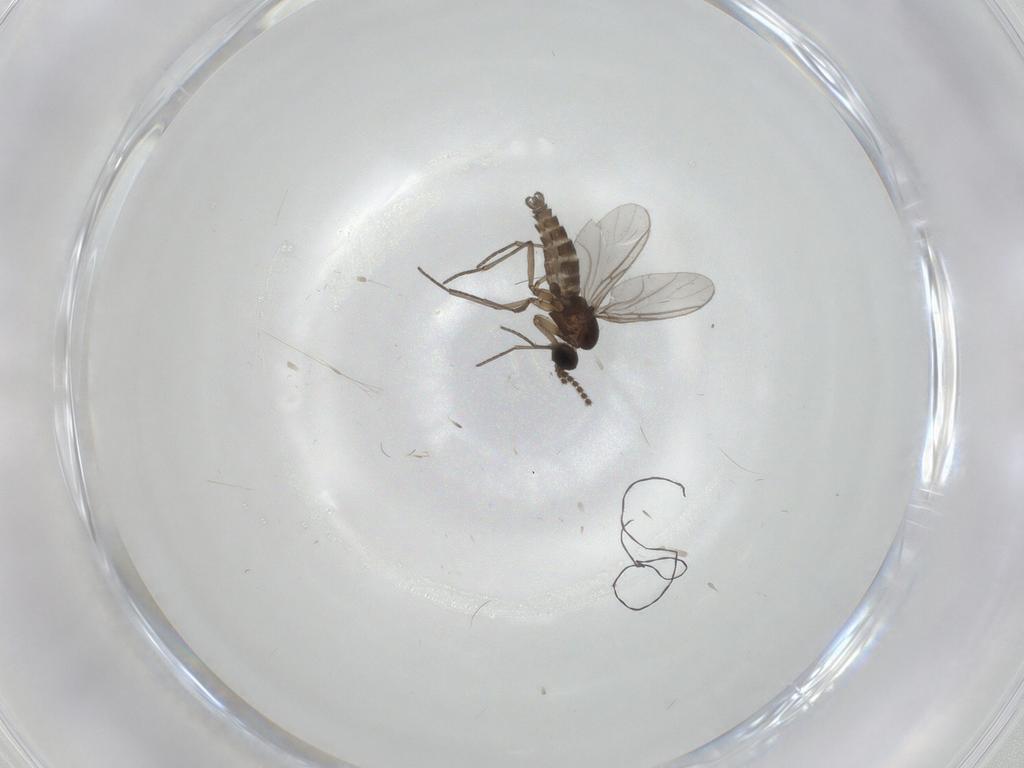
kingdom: Animalia
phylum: Arthropoda
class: Insecta
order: Diptera
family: Sciaridae
